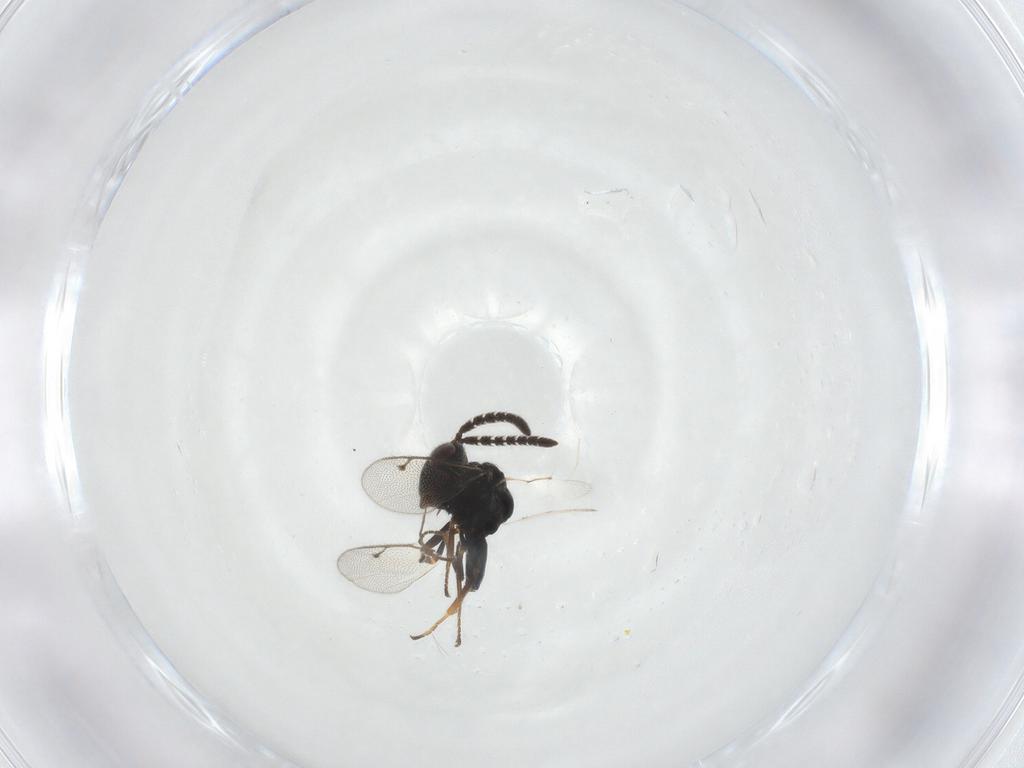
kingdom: Animalia
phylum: Arthropoda
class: Insecta
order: Hymenoptera
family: Pteromalidae
